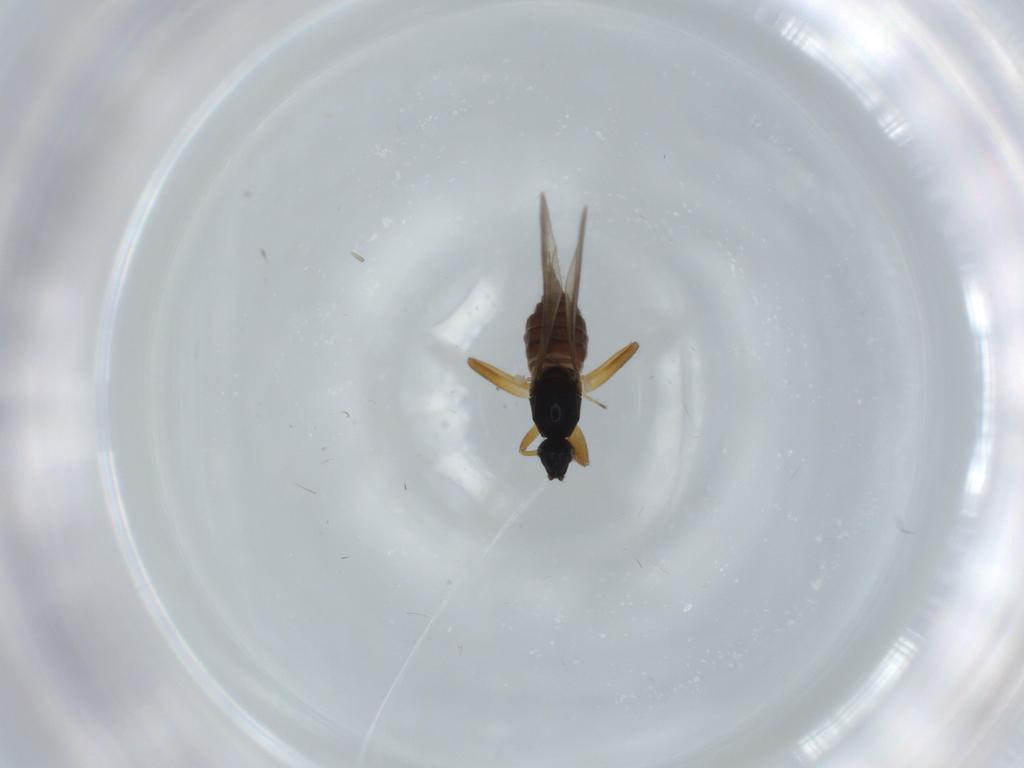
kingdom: Animalia
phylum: Arthropoda
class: Insecta
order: Diptera
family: Hybotidae
